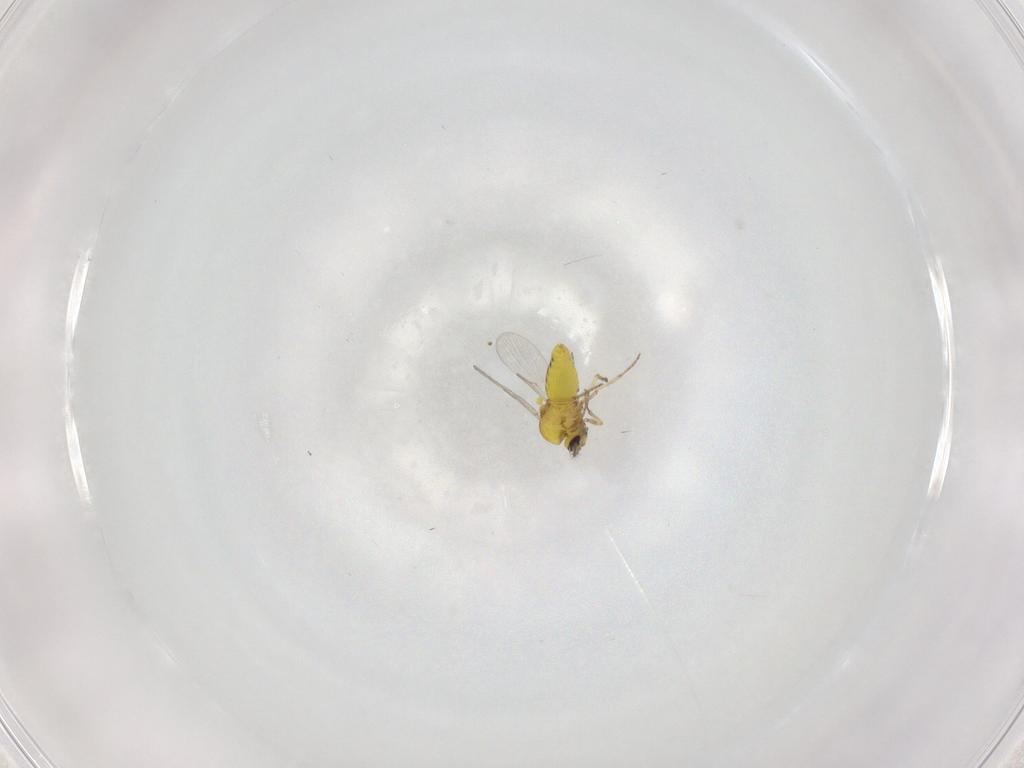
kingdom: Animalia
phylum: Arthropoda
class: Insecta
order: Diptera
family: Ceratopogonidae
